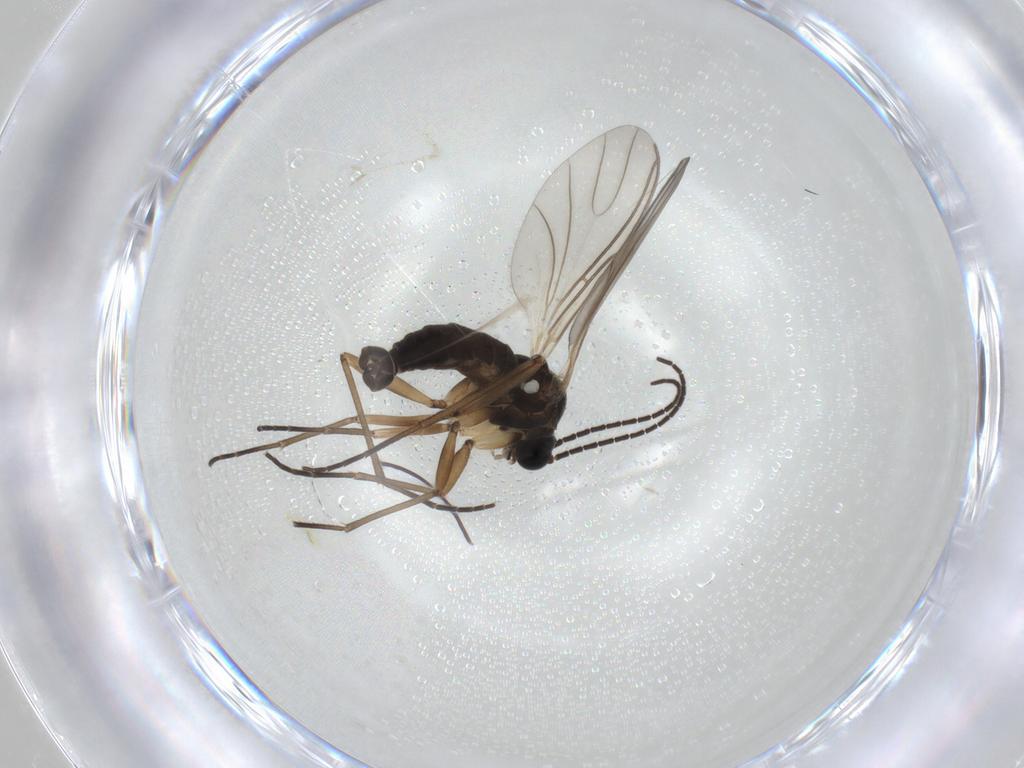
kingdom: Animalia
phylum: Arthropoda
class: Insecta
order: Diptera
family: Sciaridae
